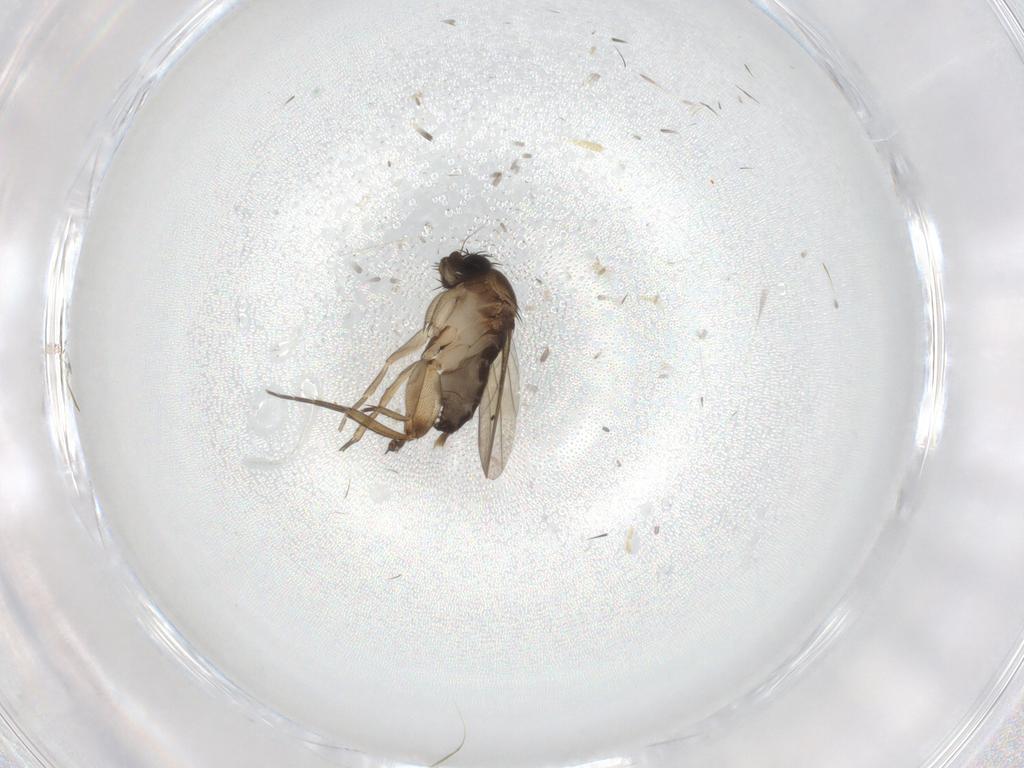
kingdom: Animalia
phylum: Arthropoda
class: Insecta
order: Diptera
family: Phoridae
